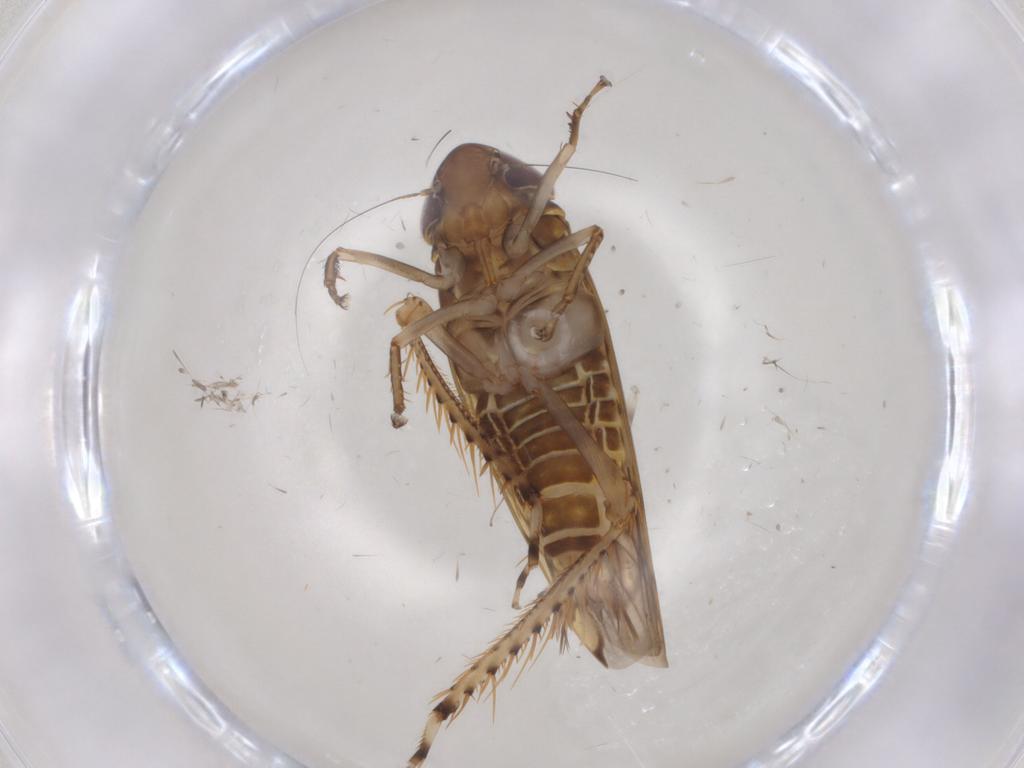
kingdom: Animalia
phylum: Arthropoda
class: Insecta
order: Hemiptera
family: Cicadellidae
